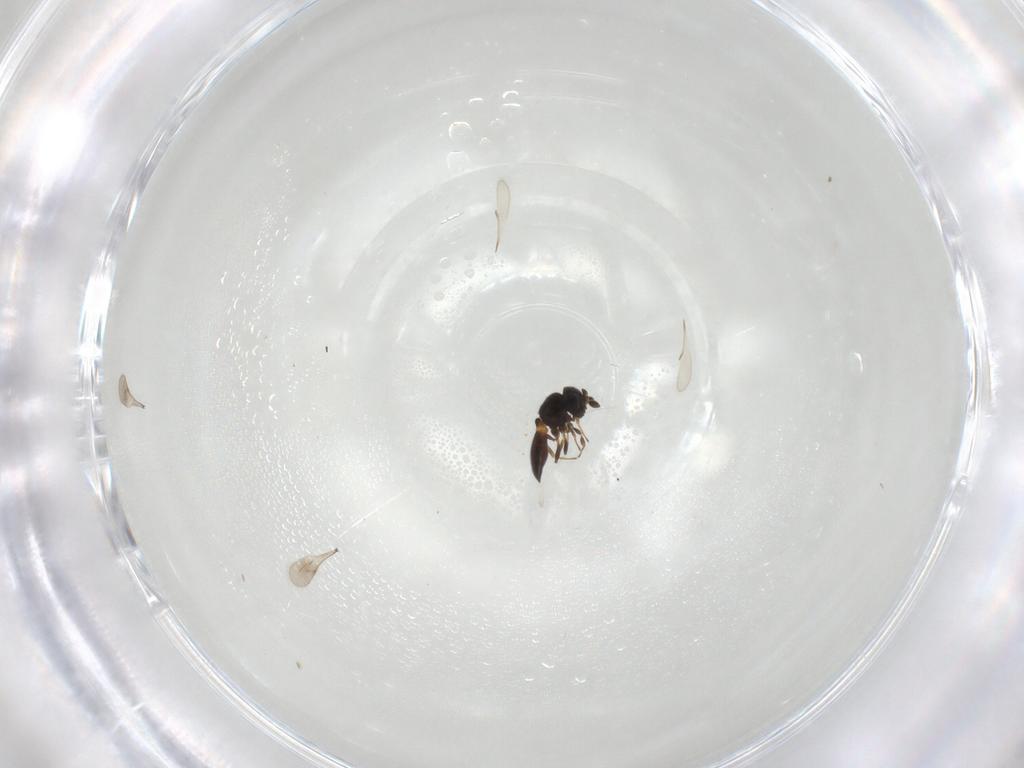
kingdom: Animalia
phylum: Arthropoda
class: Insecta
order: Hymenoptera
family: Scelionidae
